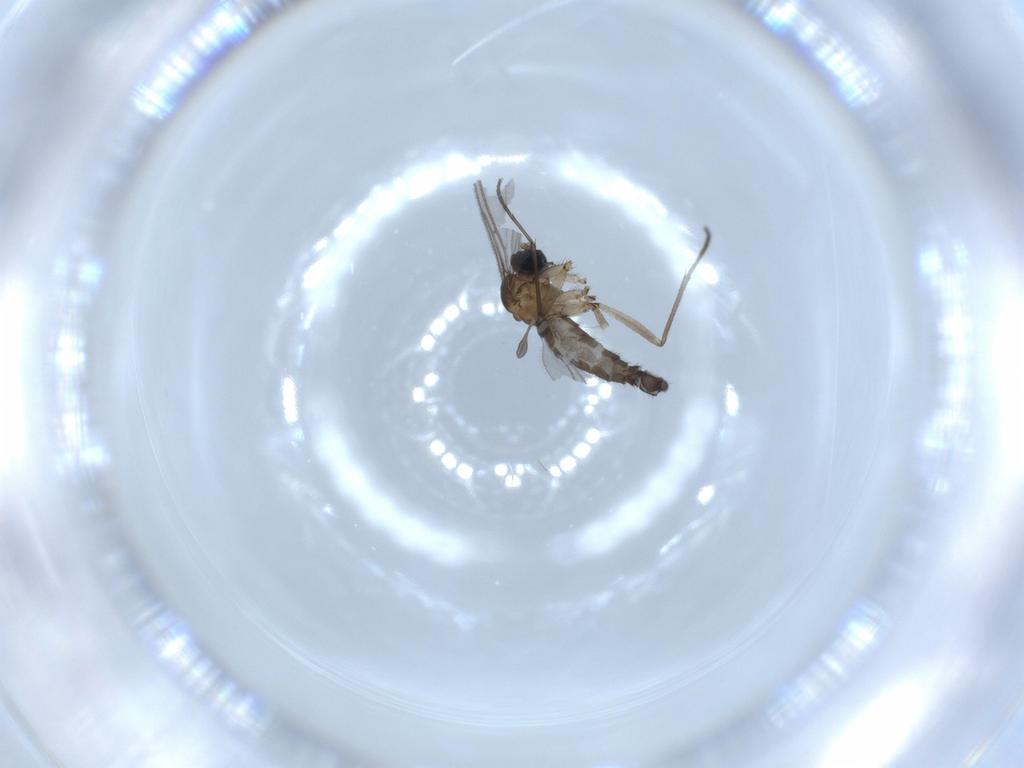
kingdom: Animalia
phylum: Arthropoda
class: Insecta
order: Diptera
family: Sciaridae
